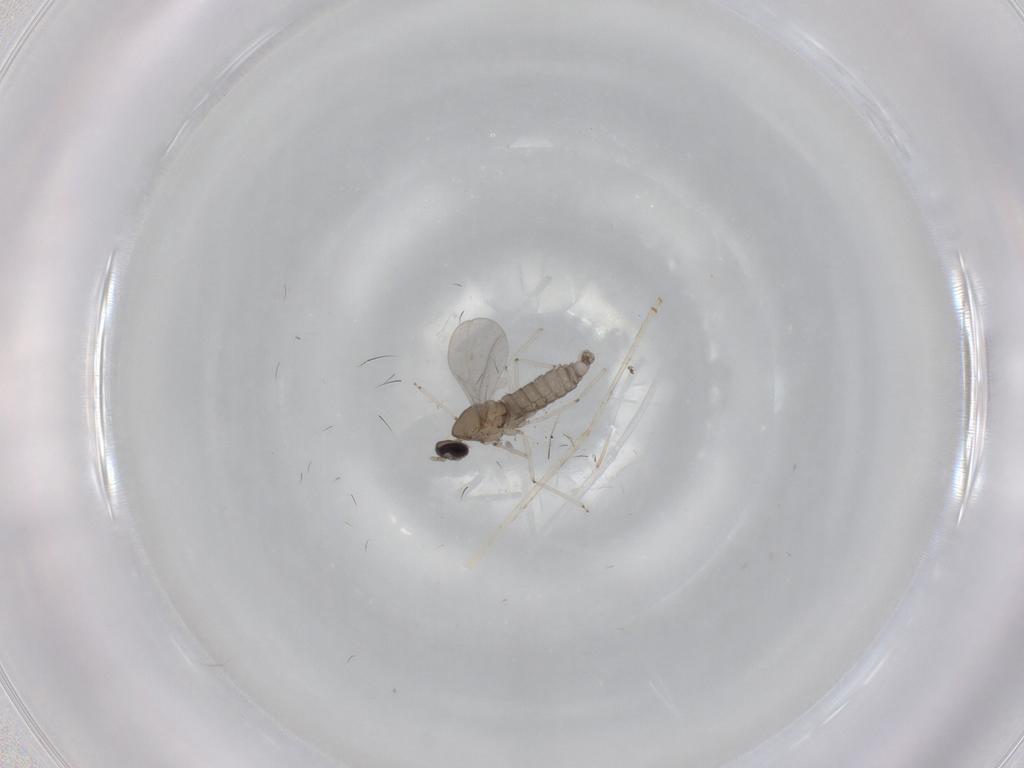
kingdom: Animalia
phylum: Arthropoda
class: Insecta
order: Diptera
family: Cecidomyiidae
